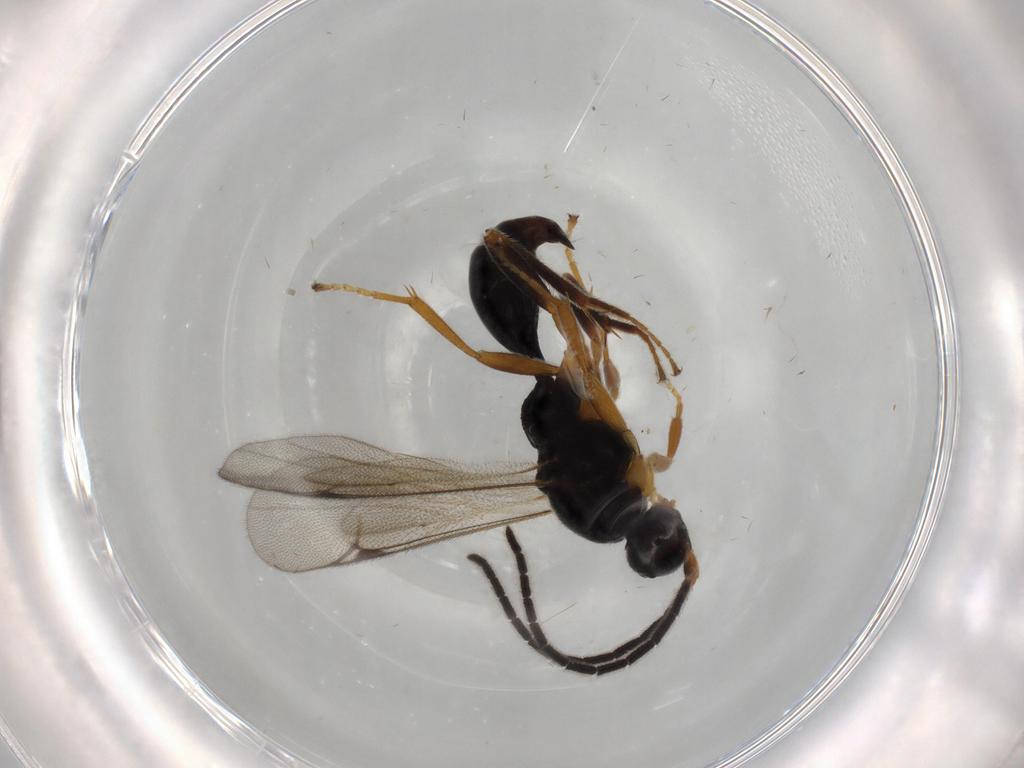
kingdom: Animalia
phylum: Arthropoda
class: Insecta
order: Hymenoptera
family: Proctotrupidae
